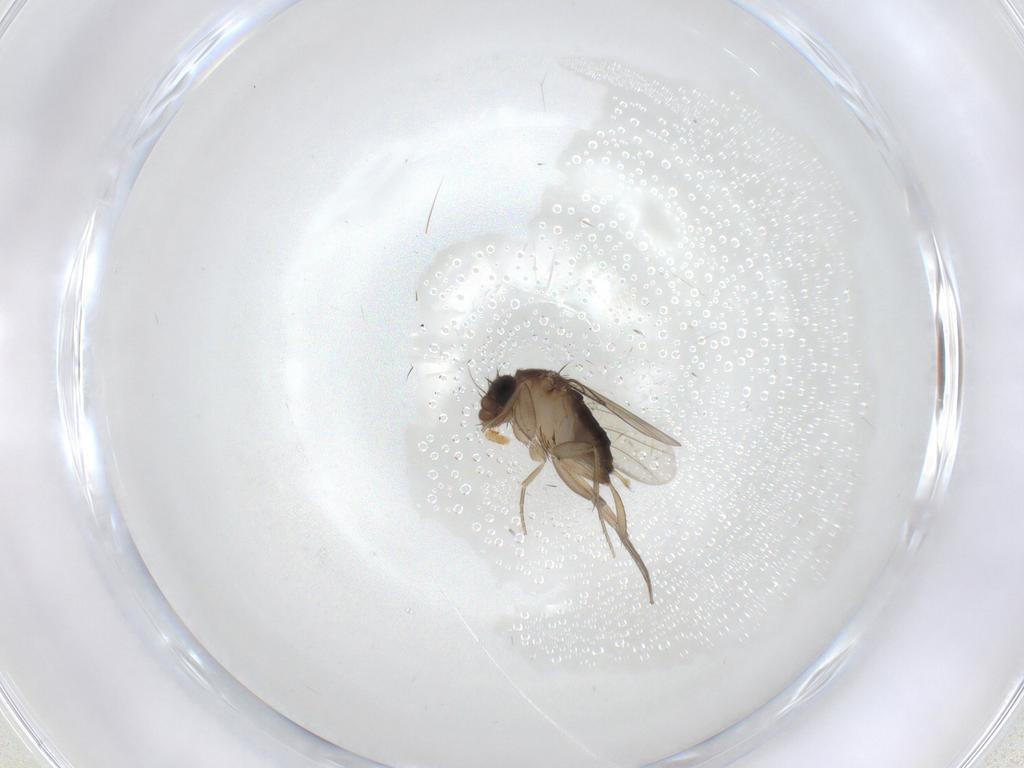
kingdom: Animalia
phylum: Arthropoda
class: Insecta
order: Diptera
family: Phoridae
